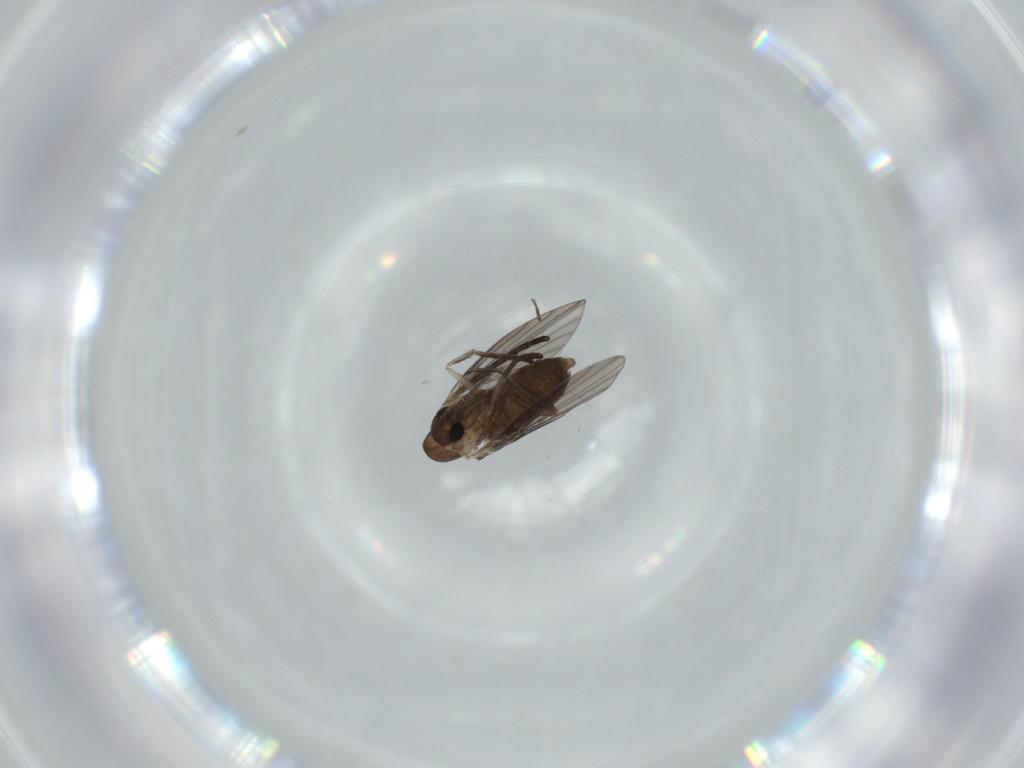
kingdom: Animalia
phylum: Arthropoda
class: Insecta
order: Diptera
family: Psychodidae
